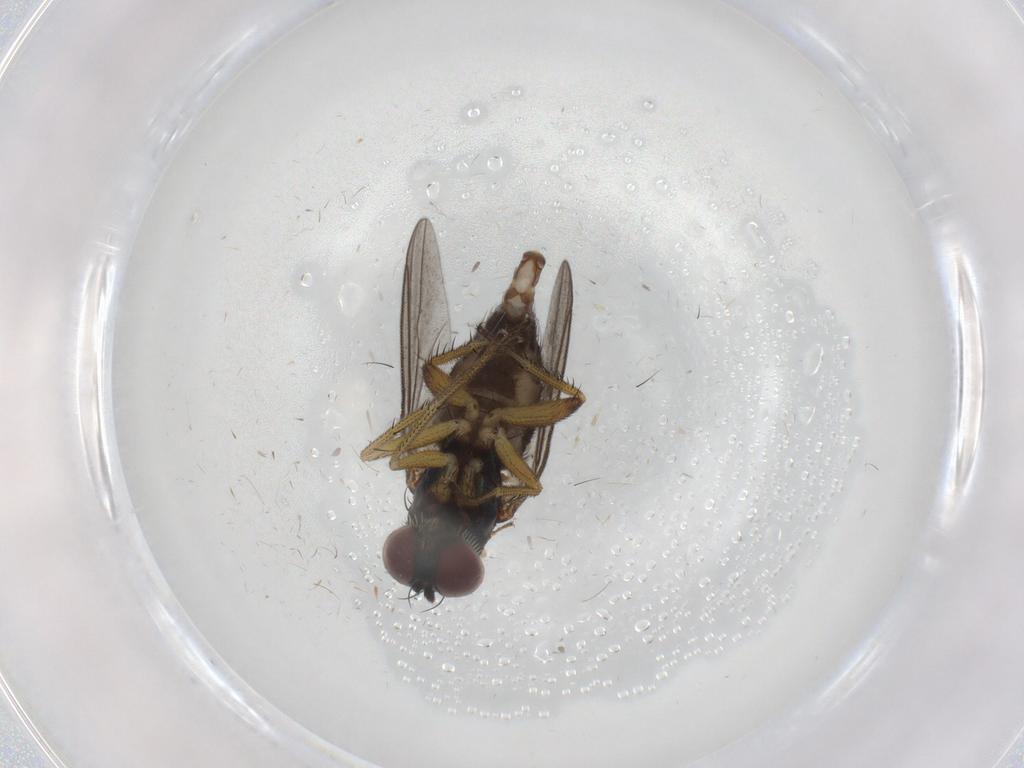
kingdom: Animalia
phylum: Arthropoda
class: Insecta
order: Diptera
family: Dolichopodidae
